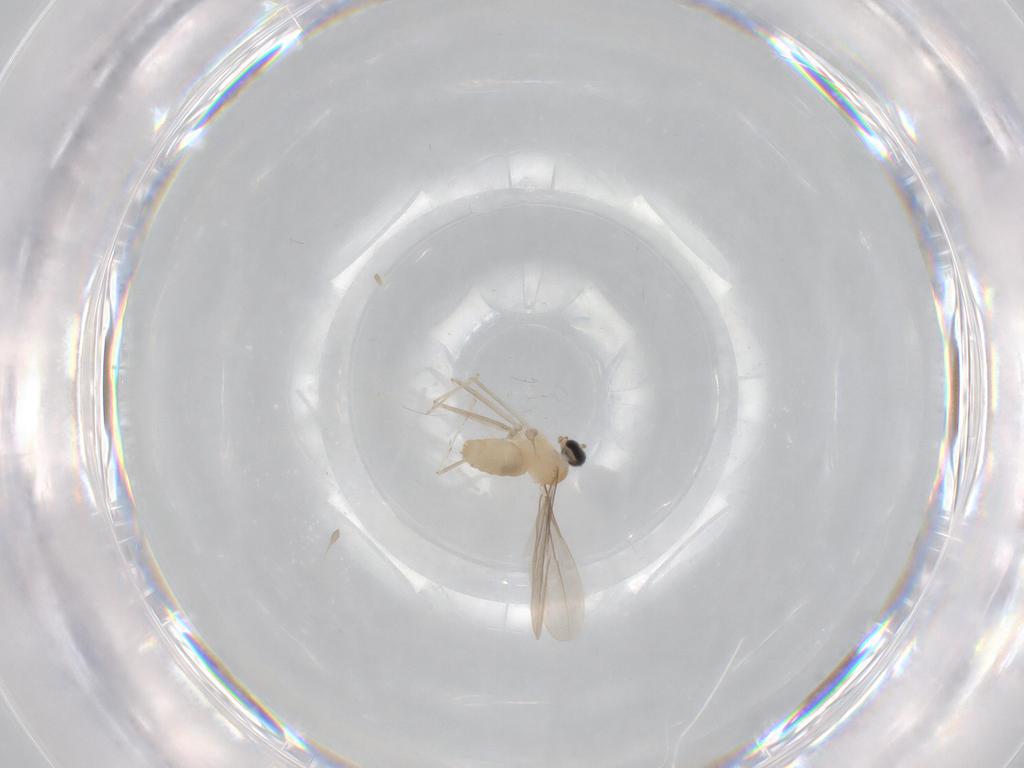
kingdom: Animalia
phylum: Arthropoda
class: Insecta
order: Diptera
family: Cecidomyiidae
